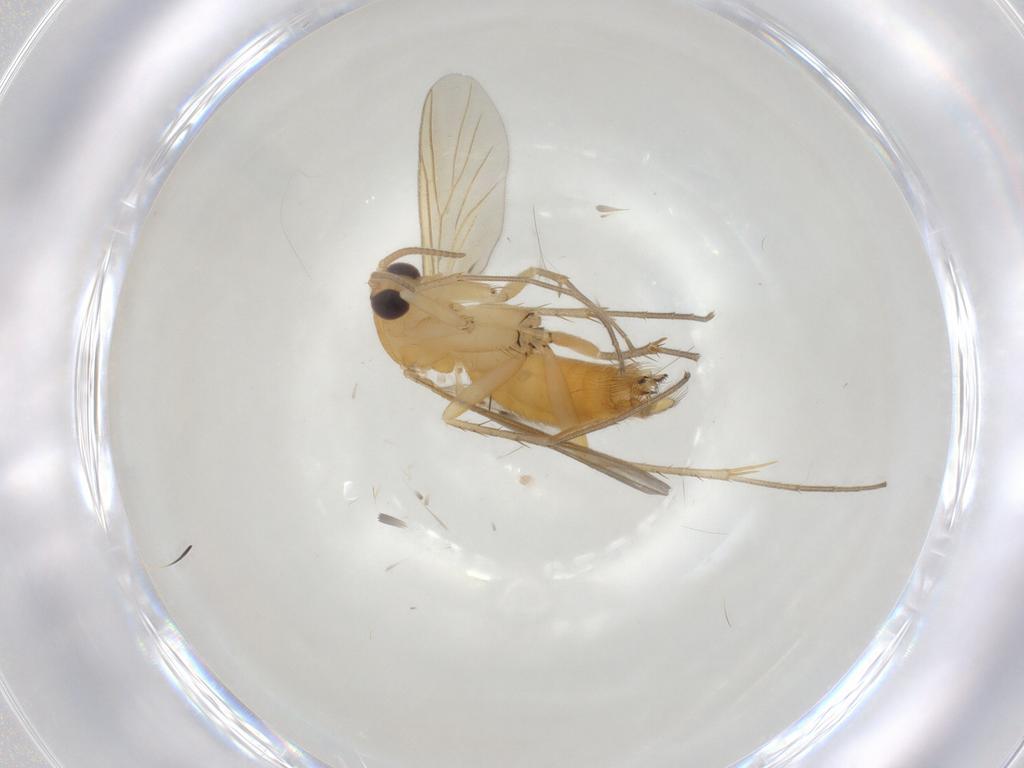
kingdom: Animalia
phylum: Arthropoda
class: Insecta
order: Diptera
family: Mycetophilidae
